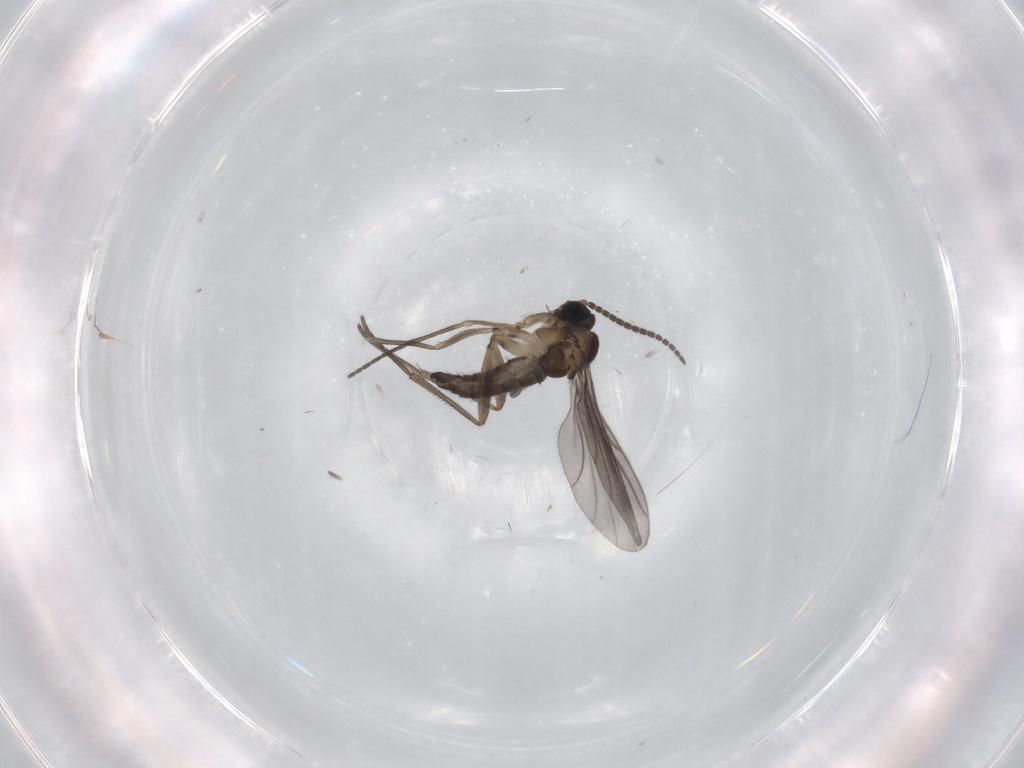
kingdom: Animalia
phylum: Arthropoda
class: Insecta
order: Diptera
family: Sciaridae
